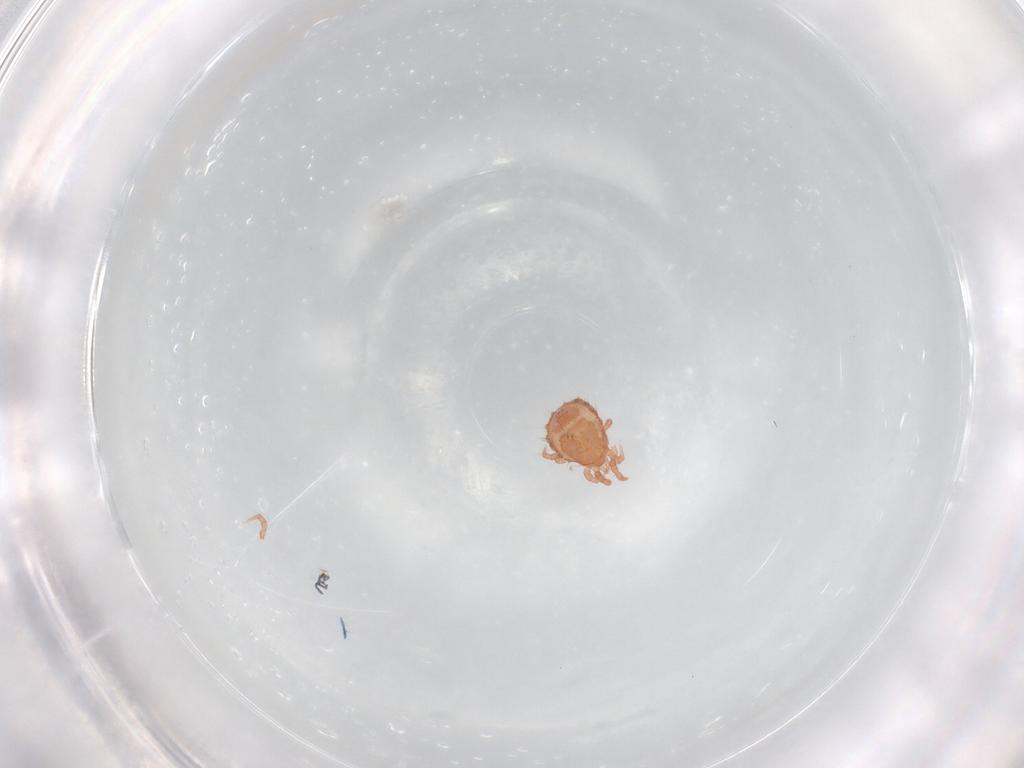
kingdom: Animalia
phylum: Arthropoda
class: Arachnida
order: Mesostigmata
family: Sejidae
